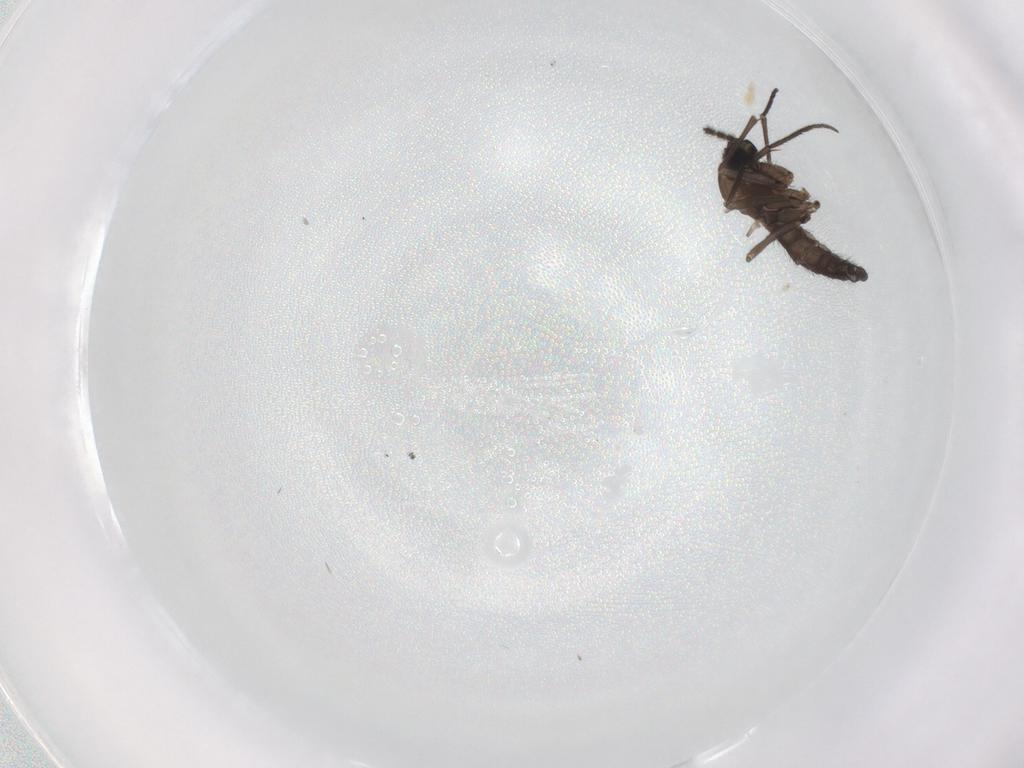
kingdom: Animalia
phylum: Arthropoda
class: Insecta
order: Diptera
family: Sciaridae
